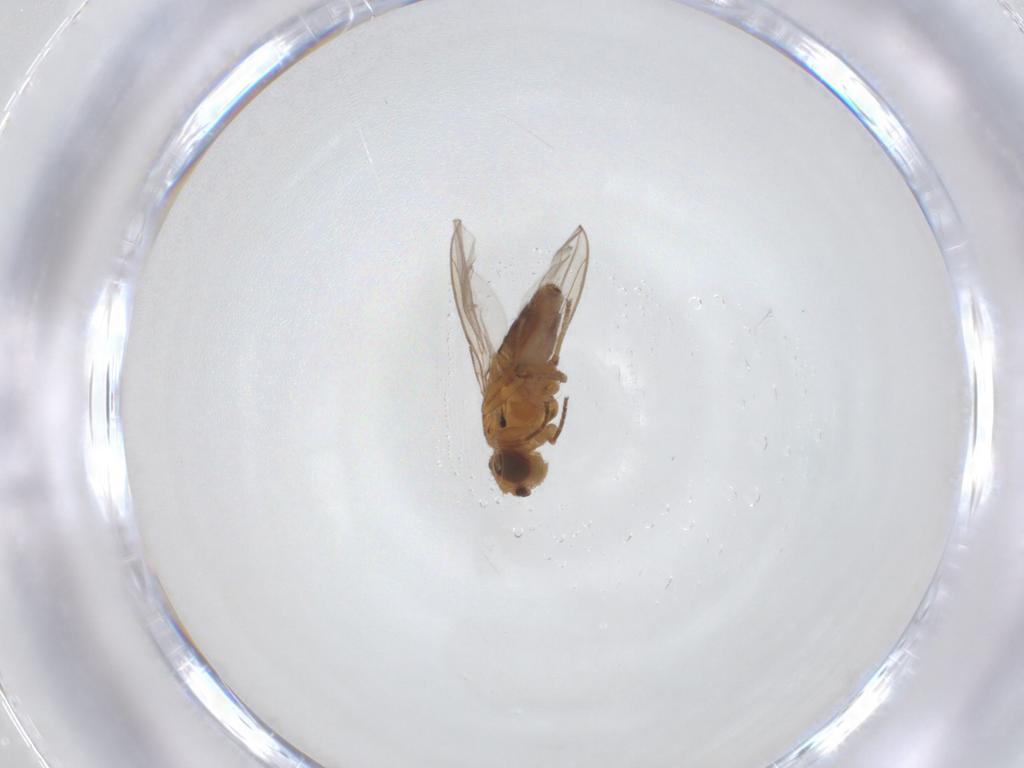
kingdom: Animalia
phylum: Arthropoda
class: Insecta
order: Diptera
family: Chloropidae
